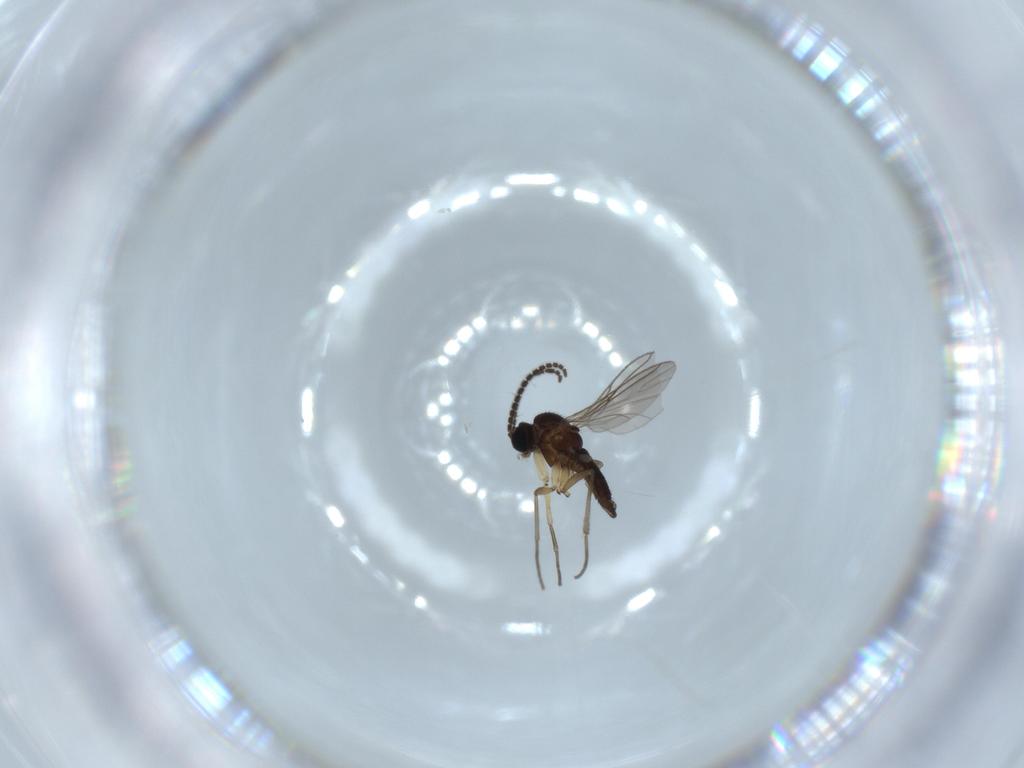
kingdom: Animalia
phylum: Arthropoda
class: Insecta
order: Diptera
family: Sciaridae
